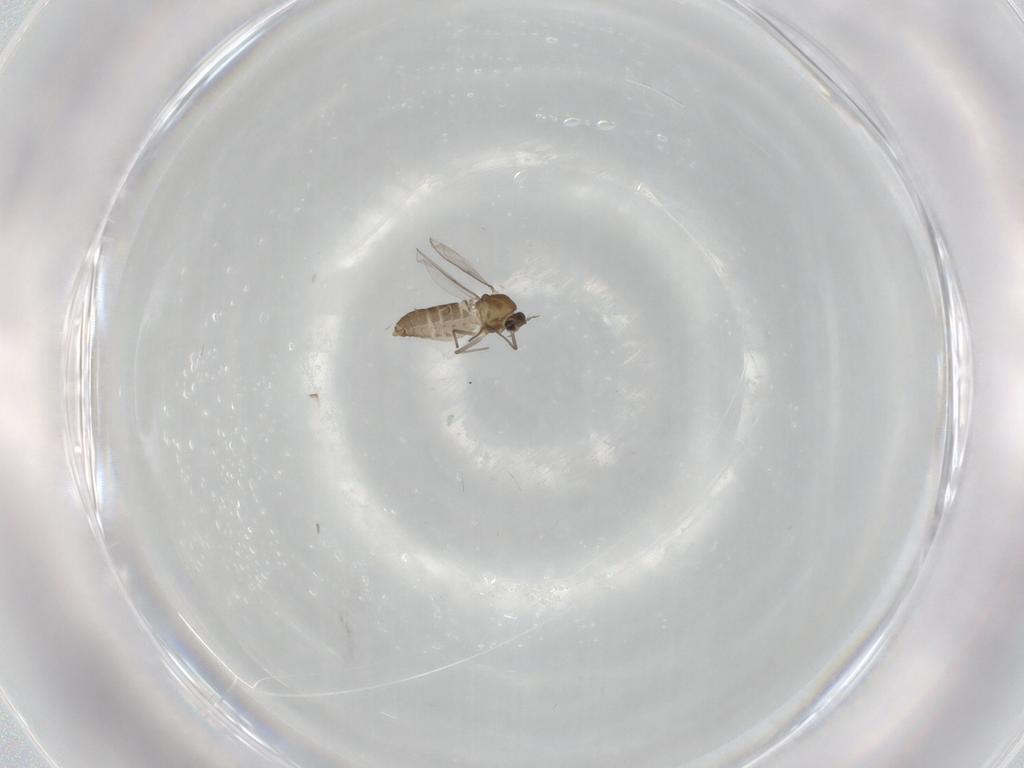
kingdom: Animalia
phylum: Arthropoda
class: Insecta
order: Diptera
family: Chironomidae
